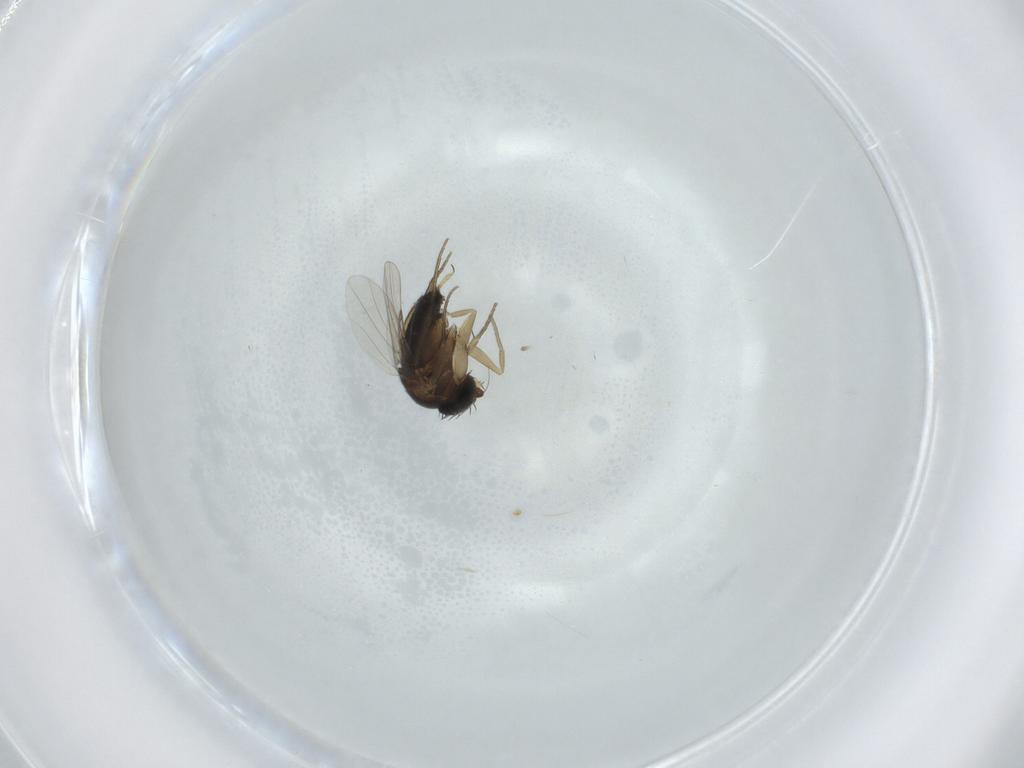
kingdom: Animalia
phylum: Arthropoda
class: Insecta
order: Diptera
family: Phoridae
